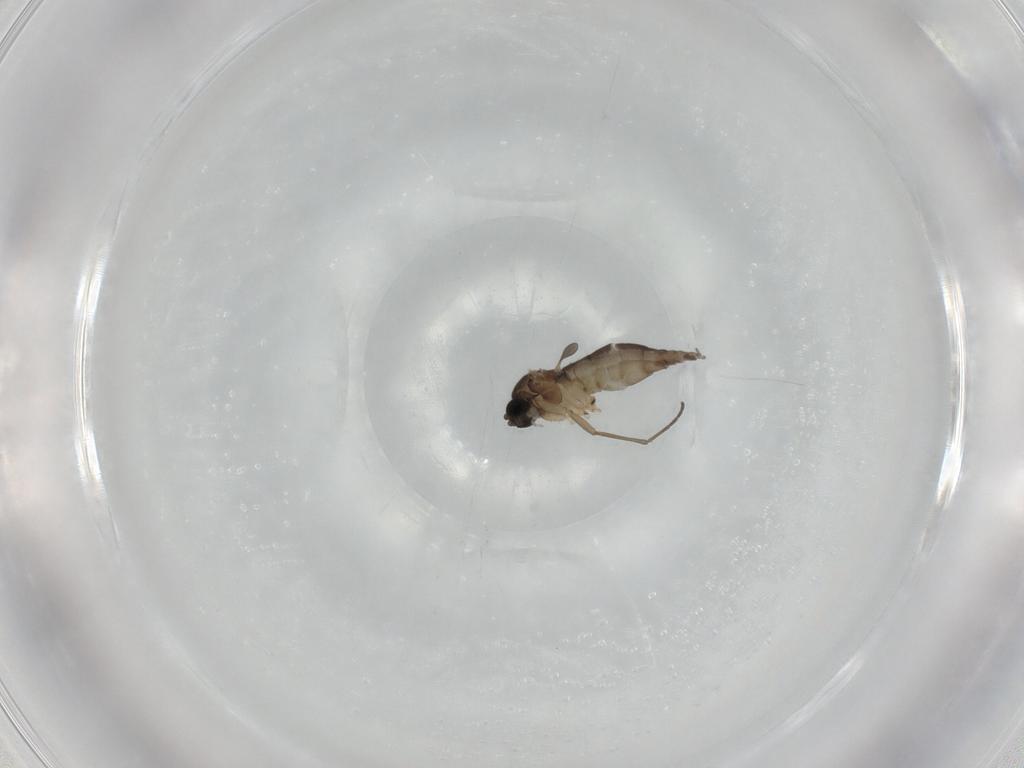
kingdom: Animalia
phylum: Arthropoda
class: Insecta
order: Diptera
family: Sciaridae
